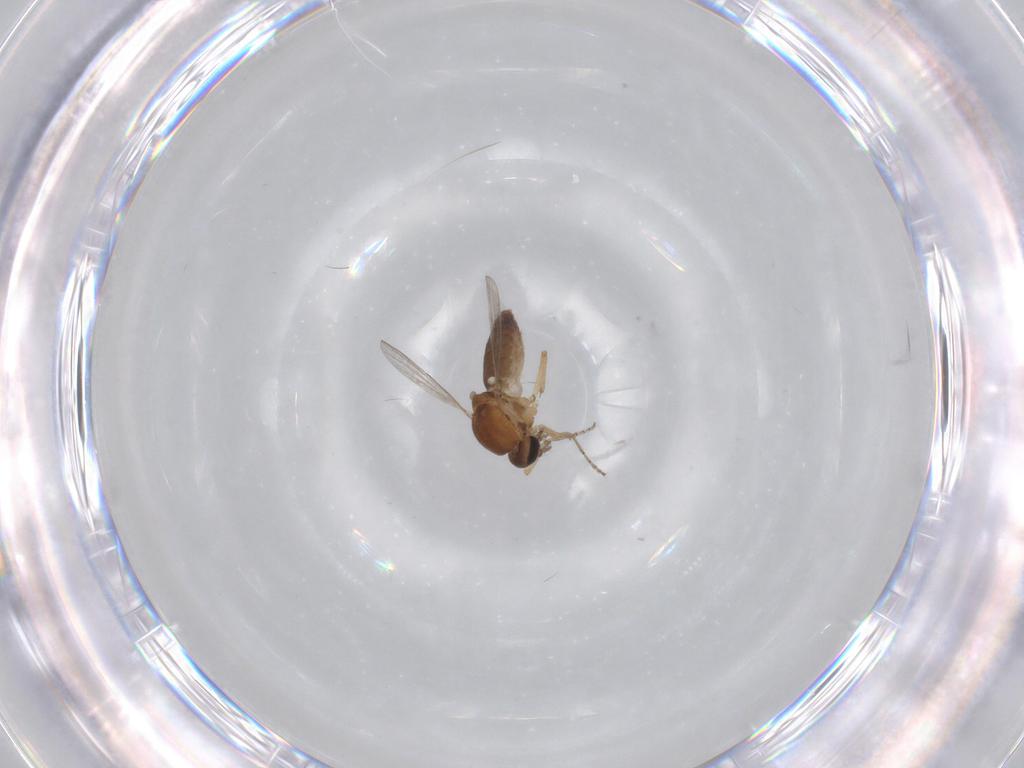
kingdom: Animalia
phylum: Arthropoda
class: Insecta
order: Diptera
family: Ceratopogonidae
